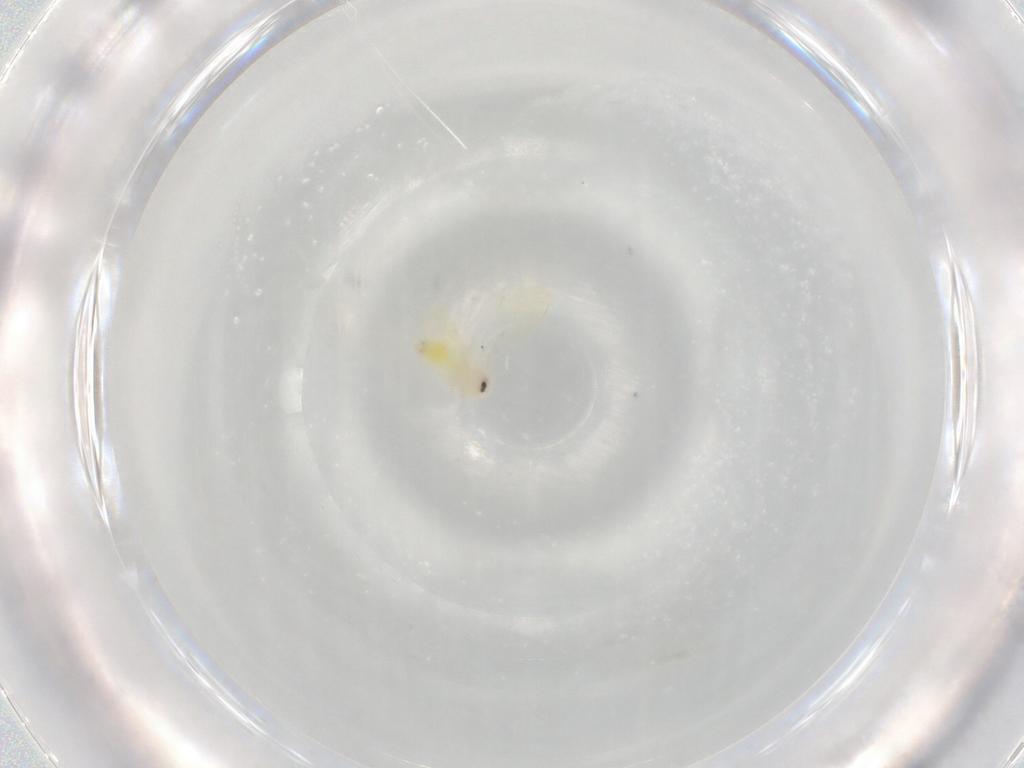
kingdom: Animalia
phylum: Arthropoda
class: Insecta
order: Hemiptera
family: Aleyrodidae
